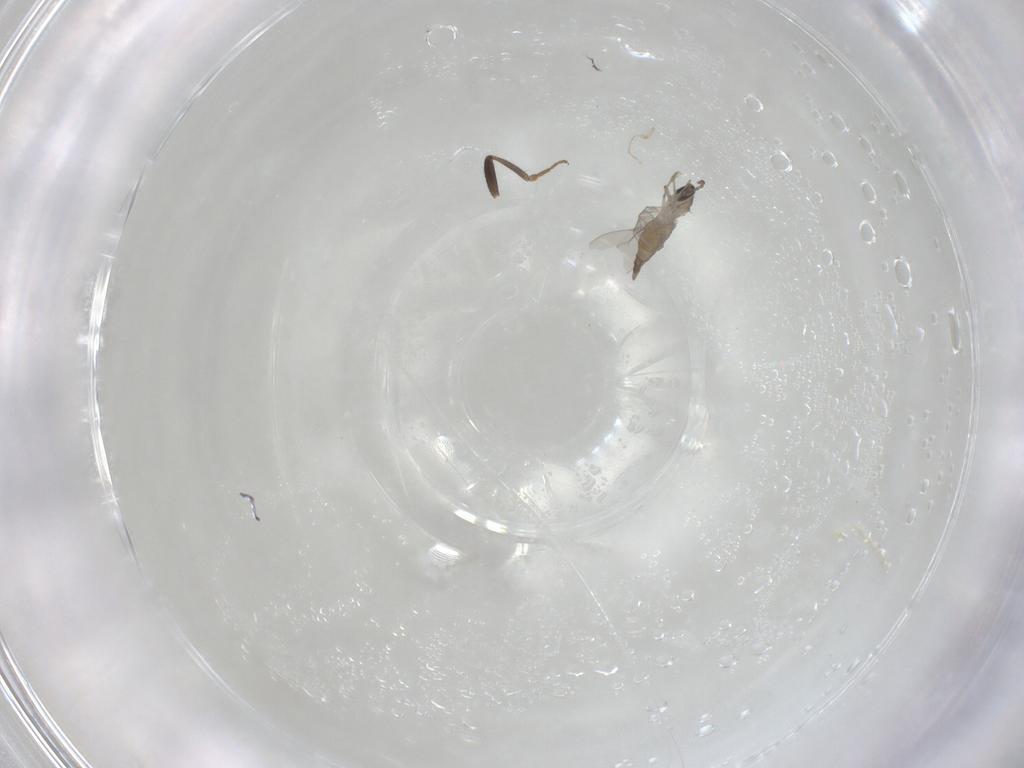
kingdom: Animalia
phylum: Arthropoda
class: Insecta
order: Diptera
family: Cecidomyiidae
